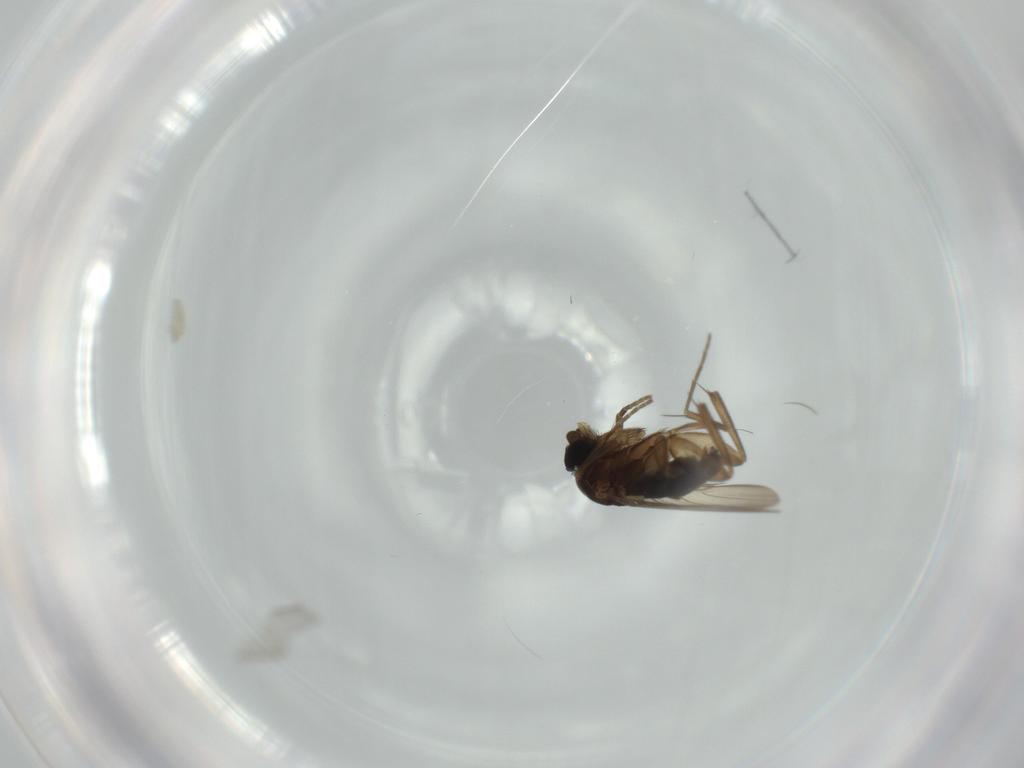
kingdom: Animalia
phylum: Arthropoda
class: Insecta
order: Diptera
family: Phoridae
